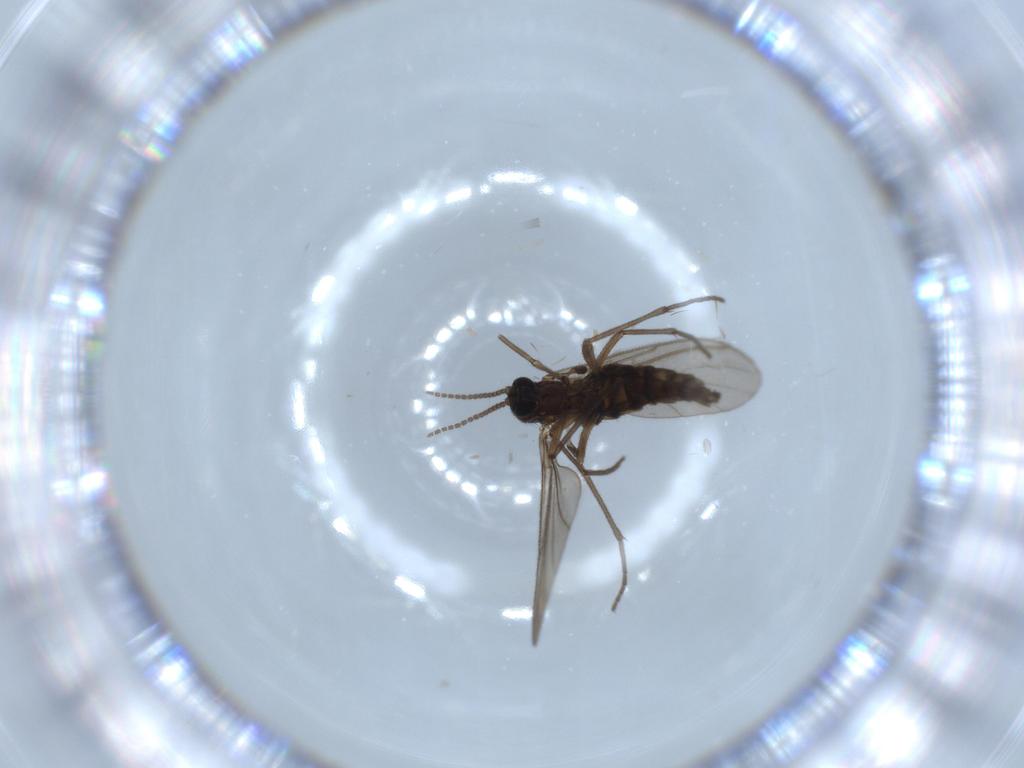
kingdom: Animalia
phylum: Arthropoda
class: Insecta
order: Diptera
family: Sciaridae
